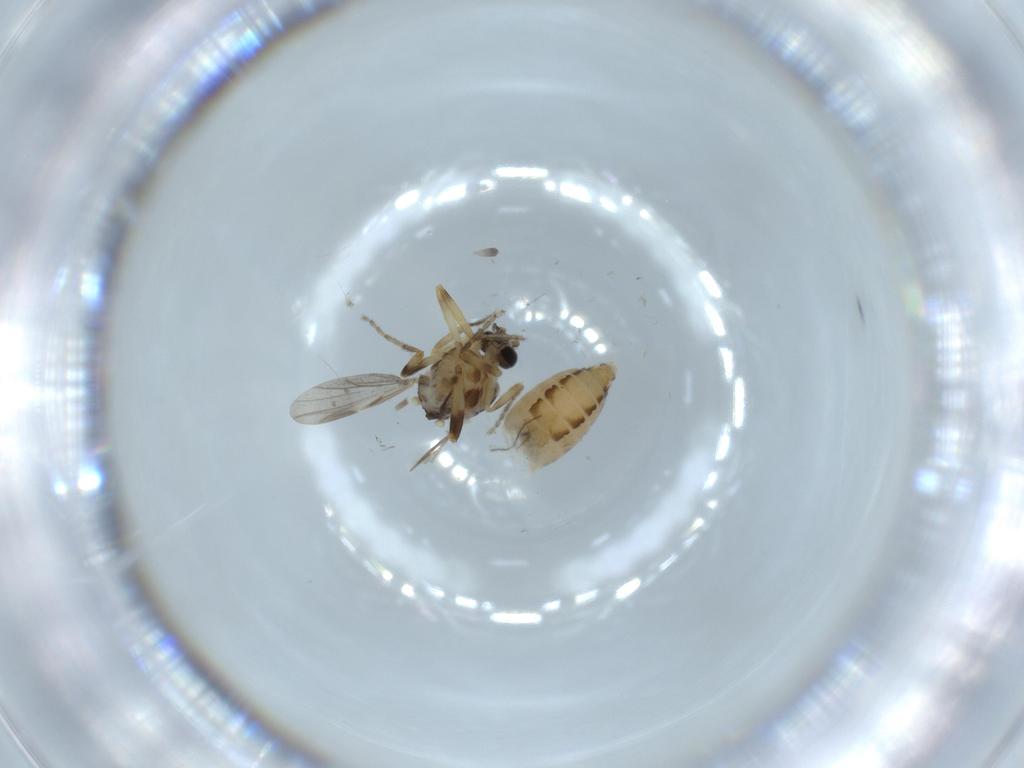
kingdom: Animalia
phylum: Arthropoda
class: Insecta
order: Diptera
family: Ceratopogonidae
